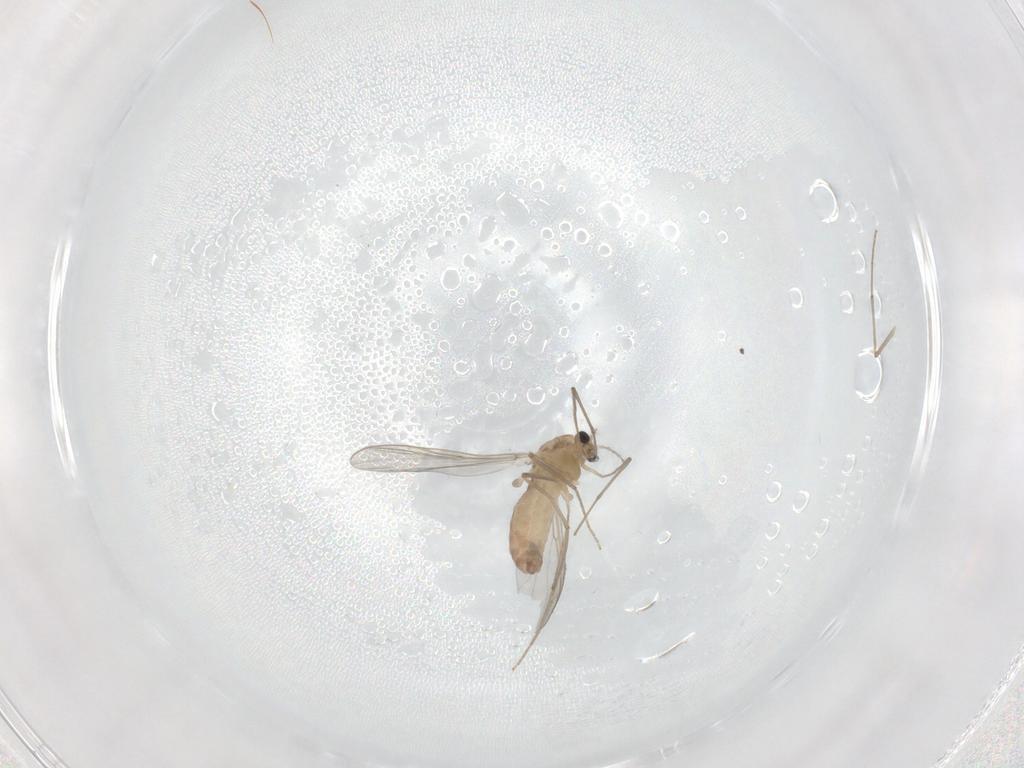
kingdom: Animalia
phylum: Arthropoda
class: Insecta
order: Diptera
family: Chironomidae
